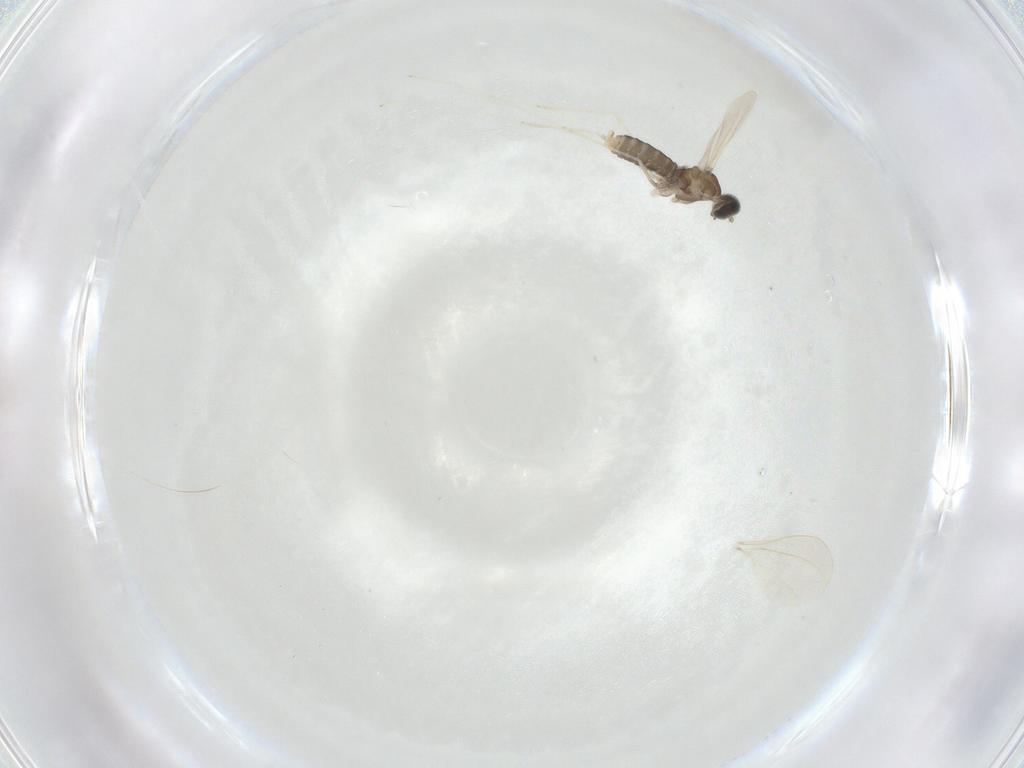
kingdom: Animalia
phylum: Arthropoda
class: Insecta
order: Diptera
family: Cecidomyiidae
